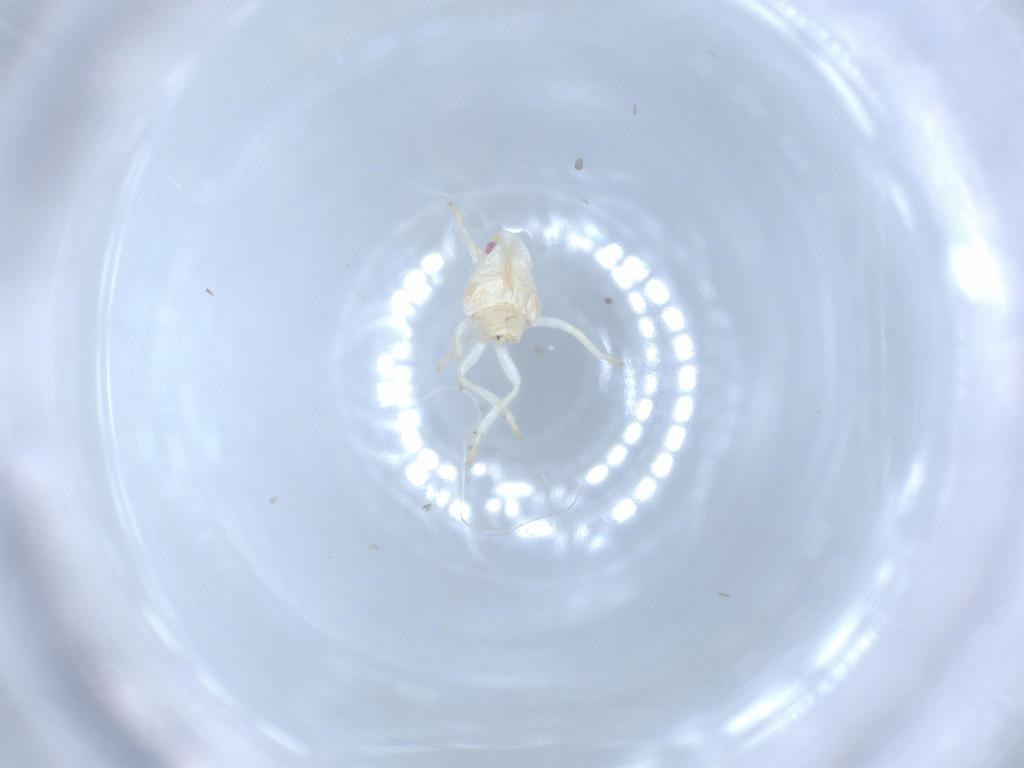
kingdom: Animalia
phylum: Arthropoda
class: Insecta
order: Hemiptera
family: Flatidae
